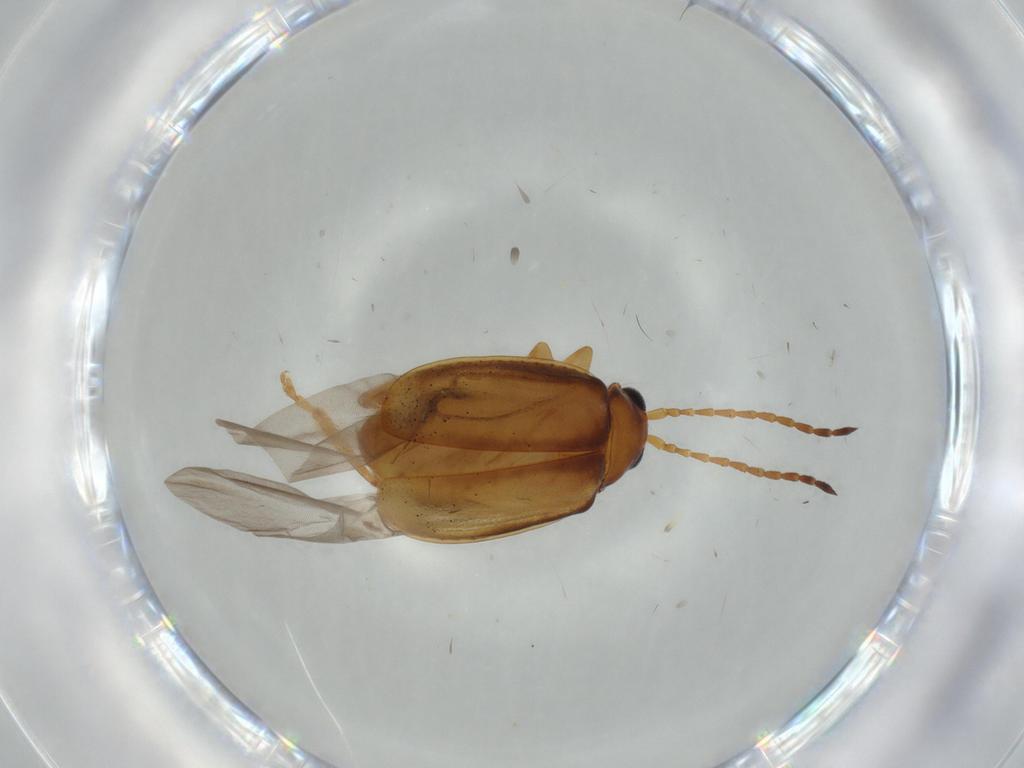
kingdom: Animalia
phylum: Arthropoda
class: Insecta
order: Coleoptera
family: Chrysomelidae
